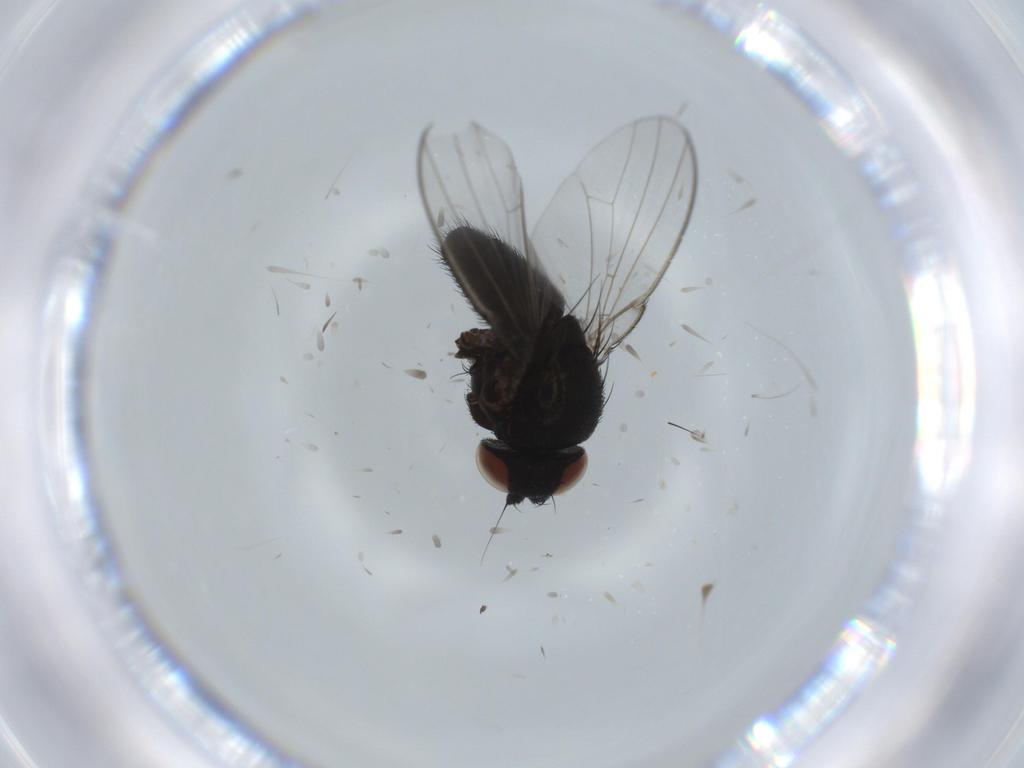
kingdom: Animalia
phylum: Arthropoda
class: Insecta
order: Diptera
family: Milichiidae
